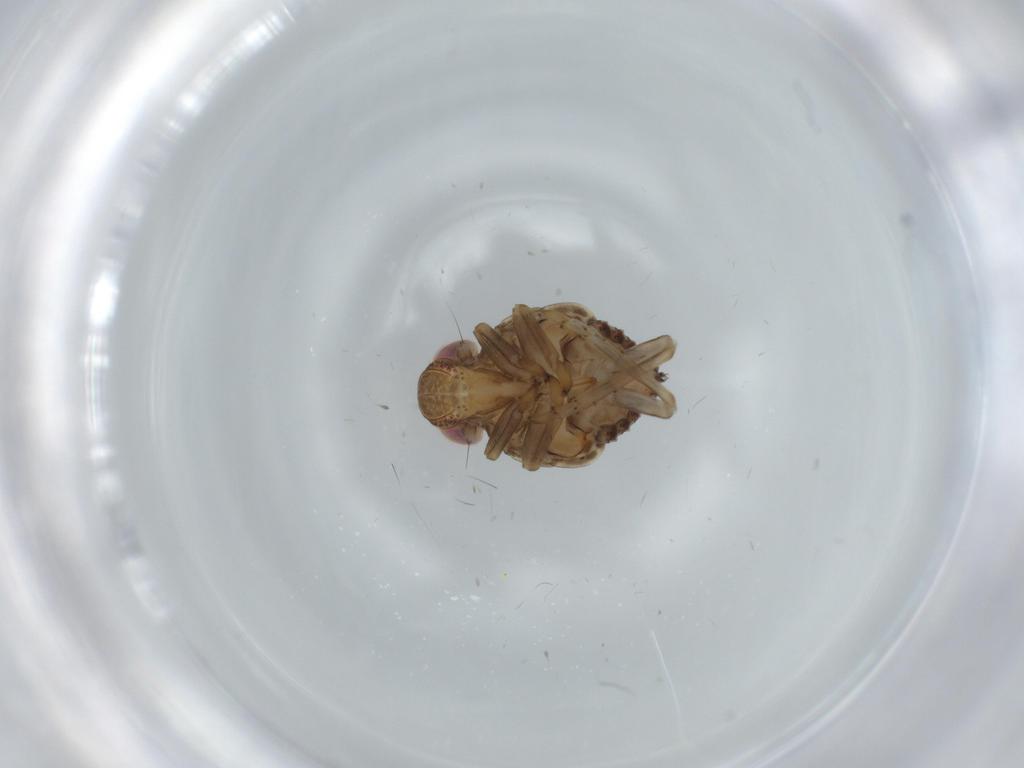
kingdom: Animalia
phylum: Arthropoda
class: Insecta
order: Hemiptera
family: Issidae
